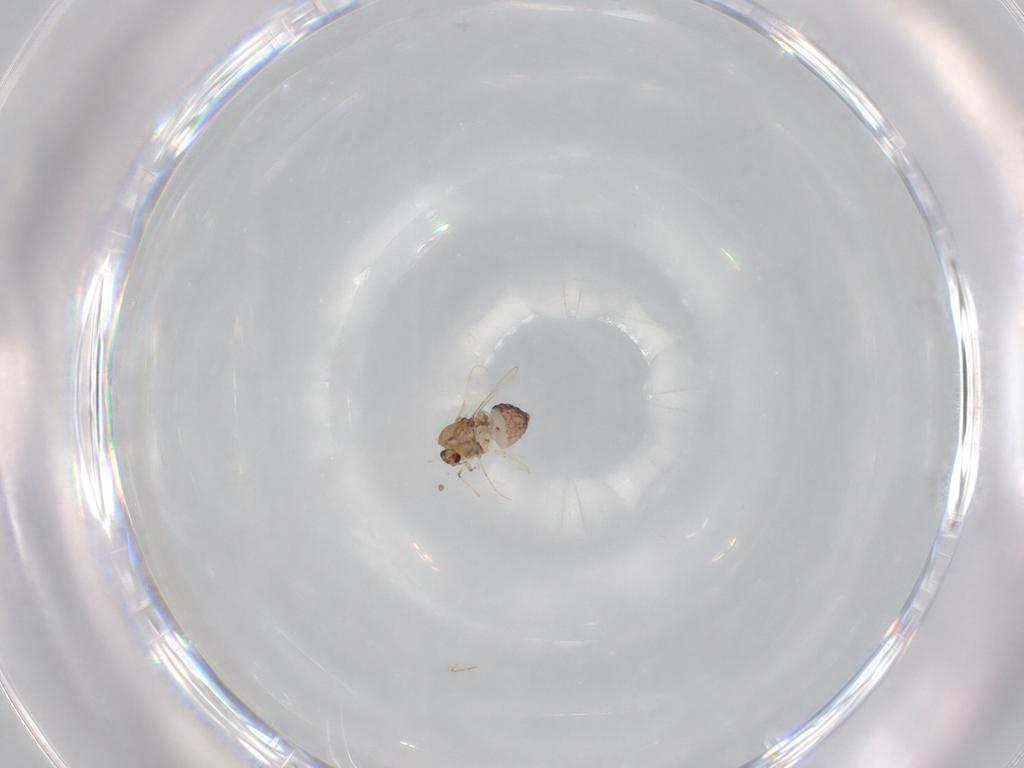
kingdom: Animalia
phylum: Arthropoda
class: Insecta
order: Diptera
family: Chironomidae
